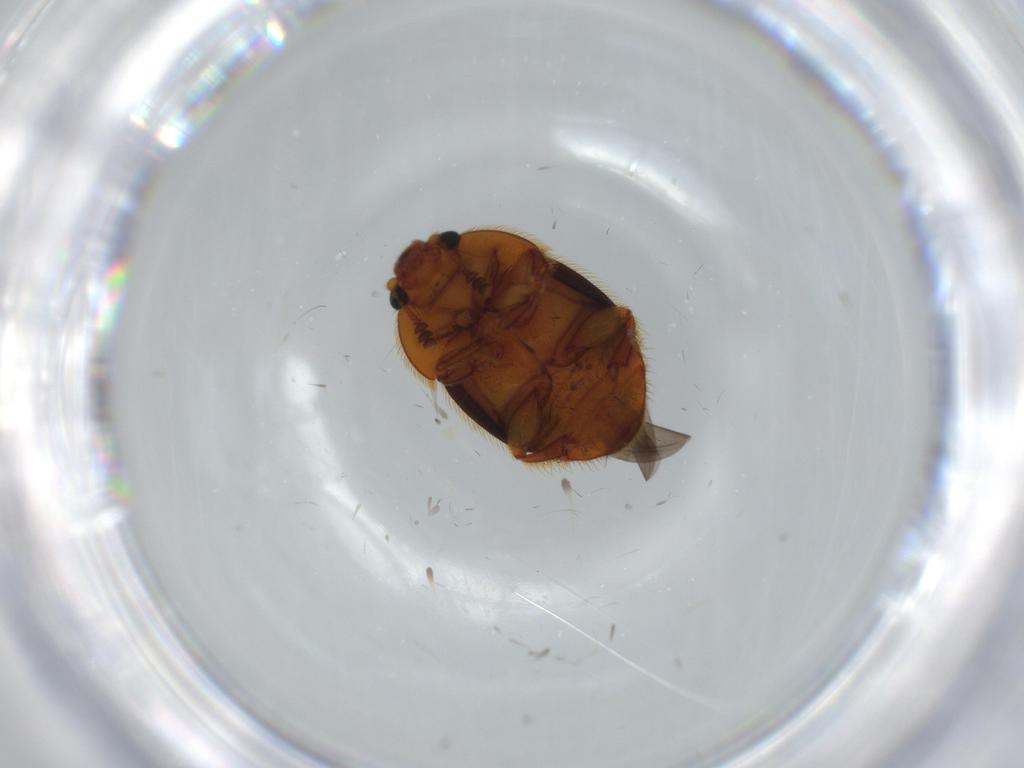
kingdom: Animalia
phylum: Arthropoda
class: Insecta
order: Coleoptera
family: Nitidulidae
